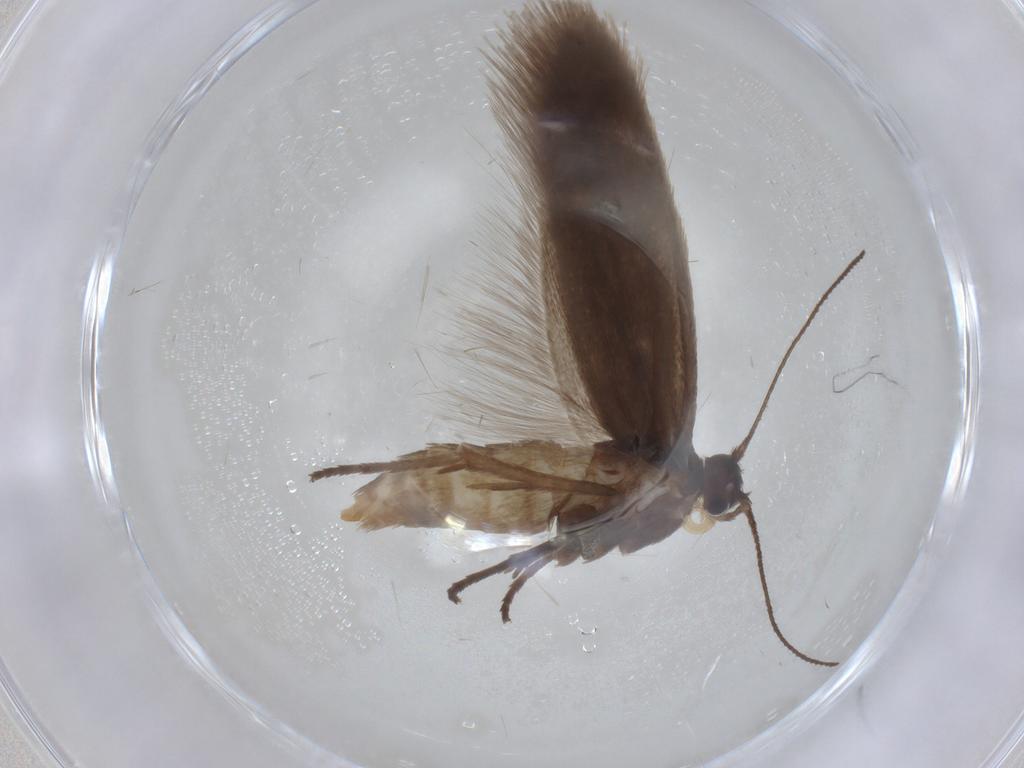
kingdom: Animalia
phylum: Arthropoda
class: Insecta
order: Lepidoptera
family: Limacodidae
